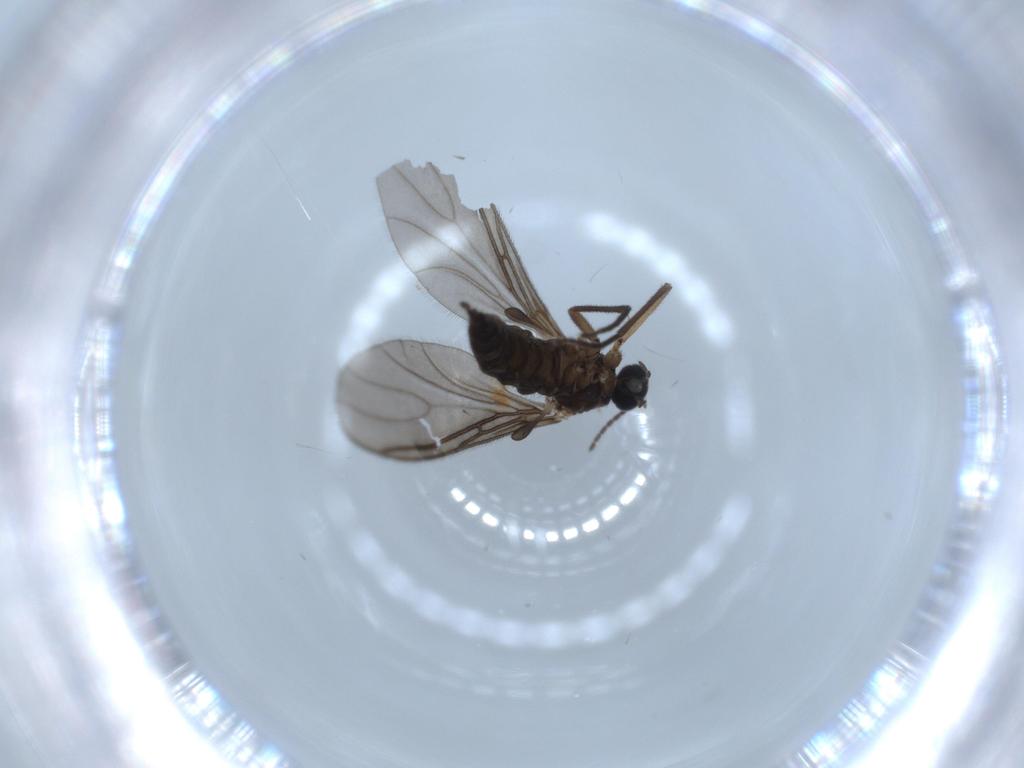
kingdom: Animalia
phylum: Arthropoda
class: Insecta
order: Diptera
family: Sciaridae
